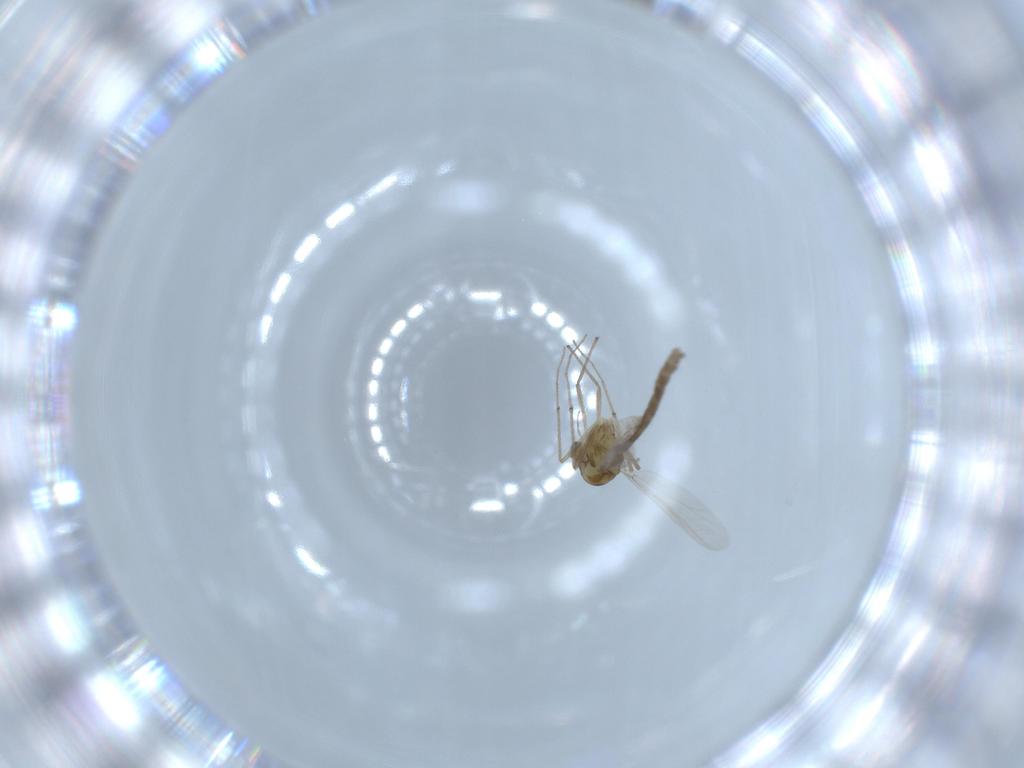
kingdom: Animalia
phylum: Arthropoda
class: Insecta
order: Diptera
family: Chironomidae
